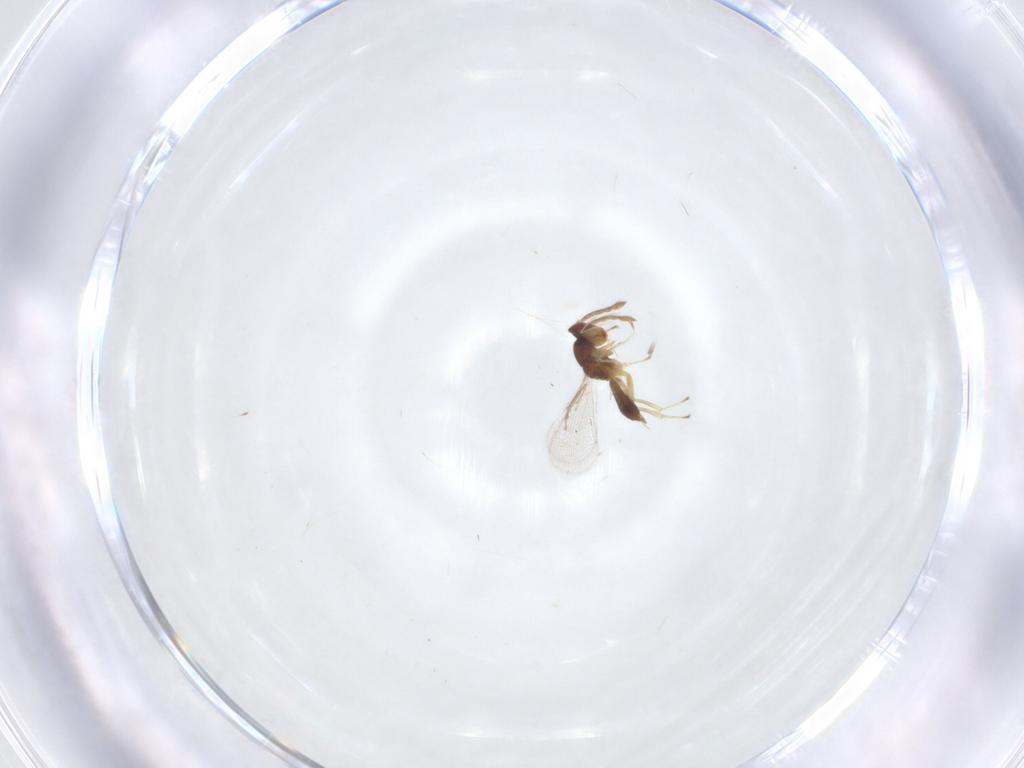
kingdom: Animalia
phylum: Arthropoda
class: Insecta
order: Hymenoptera
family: Eulophidae
